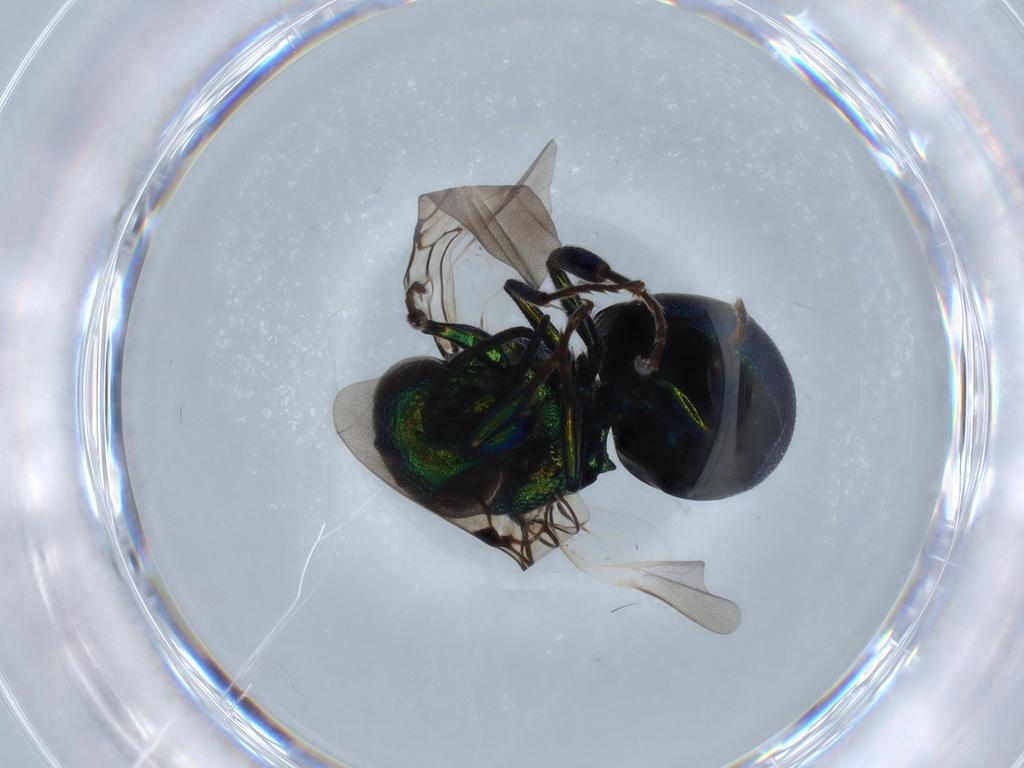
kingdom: Animalia
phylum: Arthropoda
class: Insecta
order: Hymenoptera
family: Chrysididae
